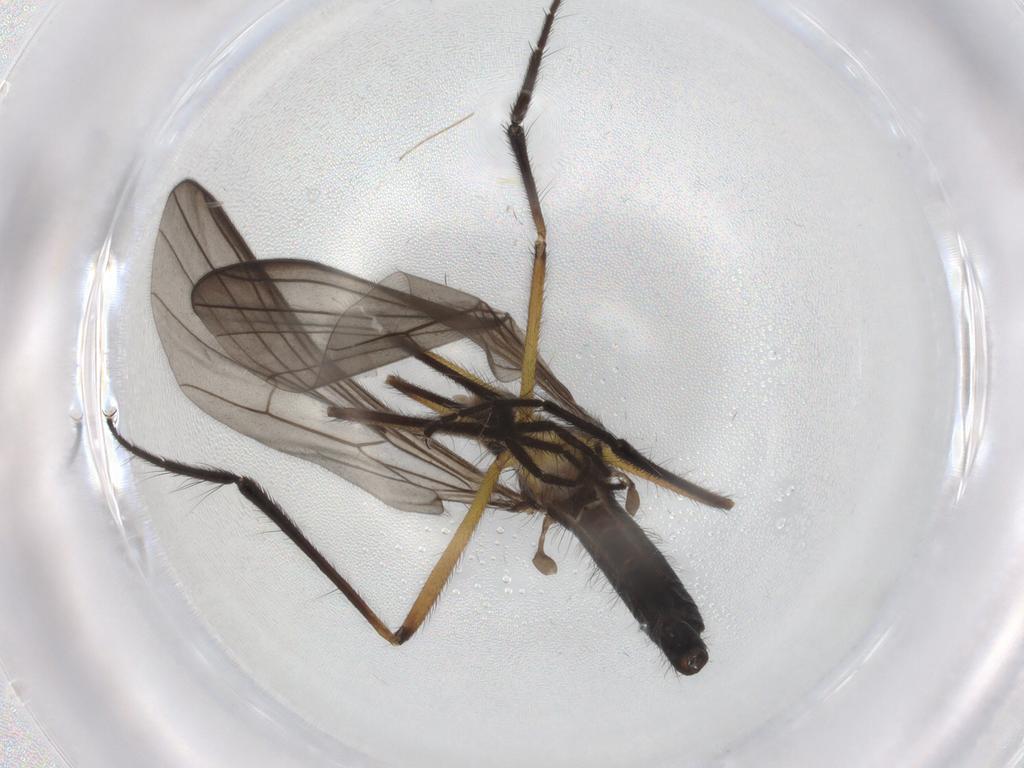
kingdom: Animalia
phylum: Arthropoda
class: Insecta
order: Diptera
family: Empididae
